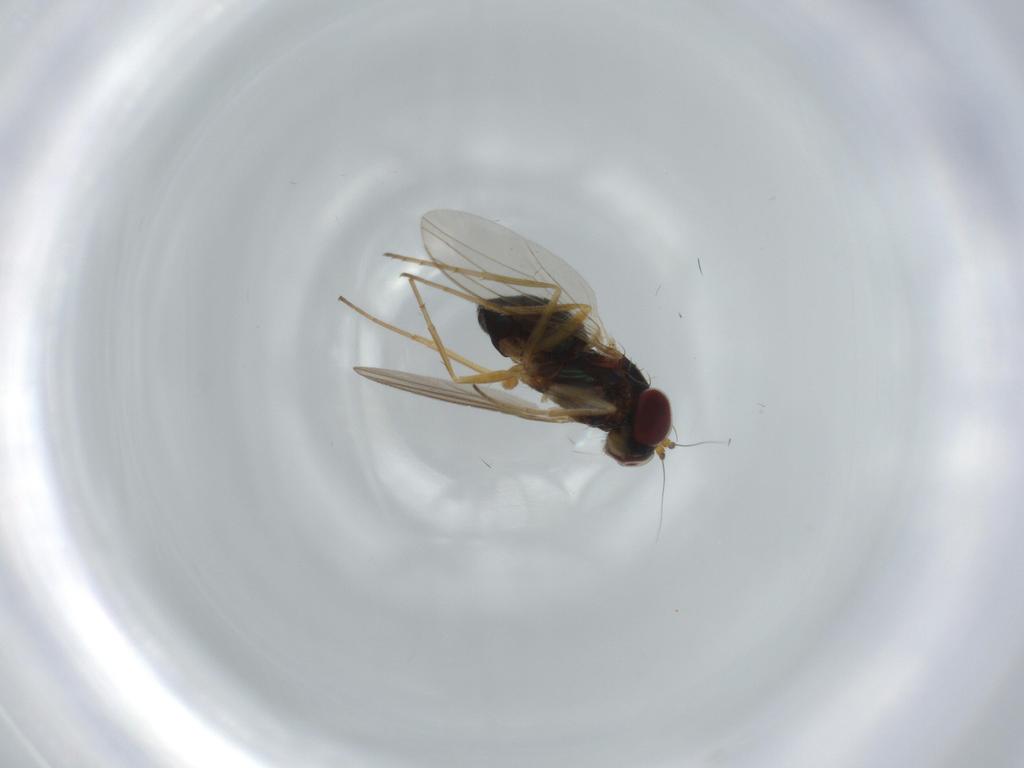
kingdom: Animalia
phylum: Arthropoda
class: Insecta
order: Diptera
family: Dolichopodidae
